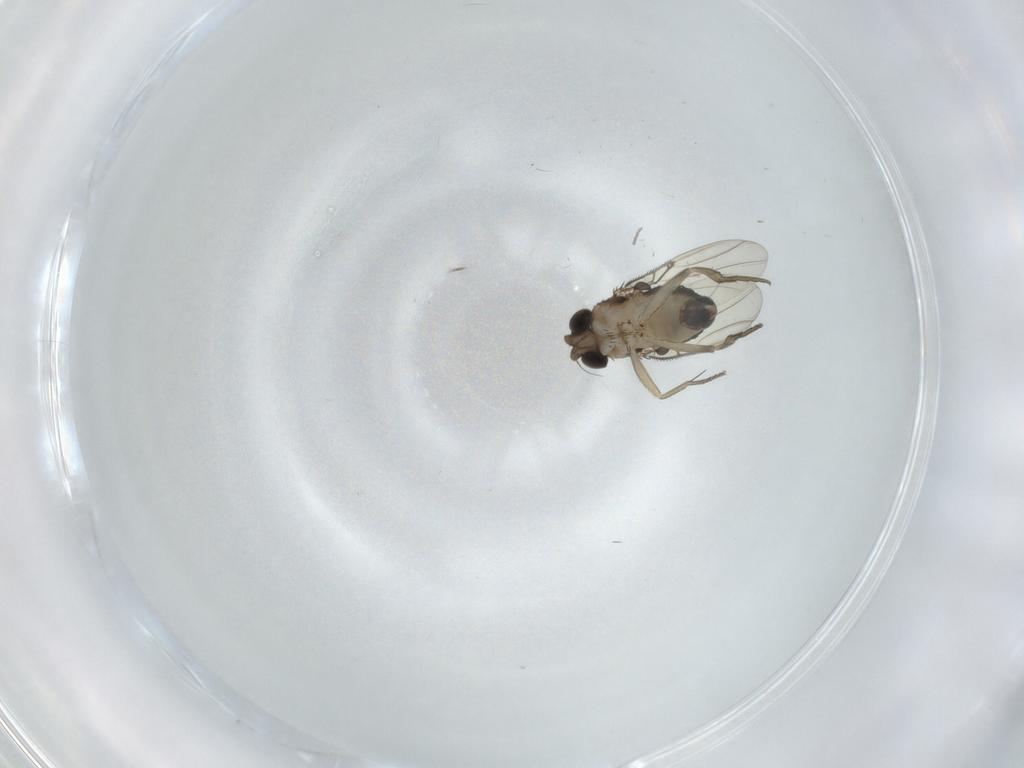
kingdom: Animalia
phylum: Arthropoda
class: Insecta
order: Diptera
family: Phoridae
